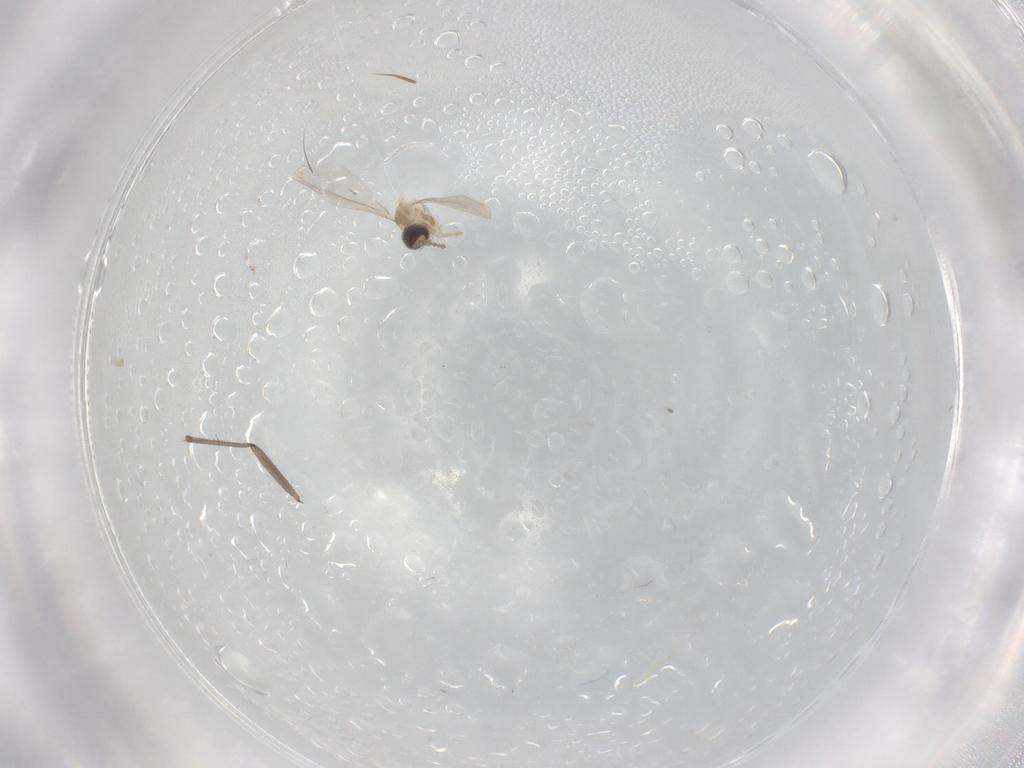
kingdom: Animalia
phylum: Arthropoda
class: Insecta
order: Diptera
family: Sciaridae
